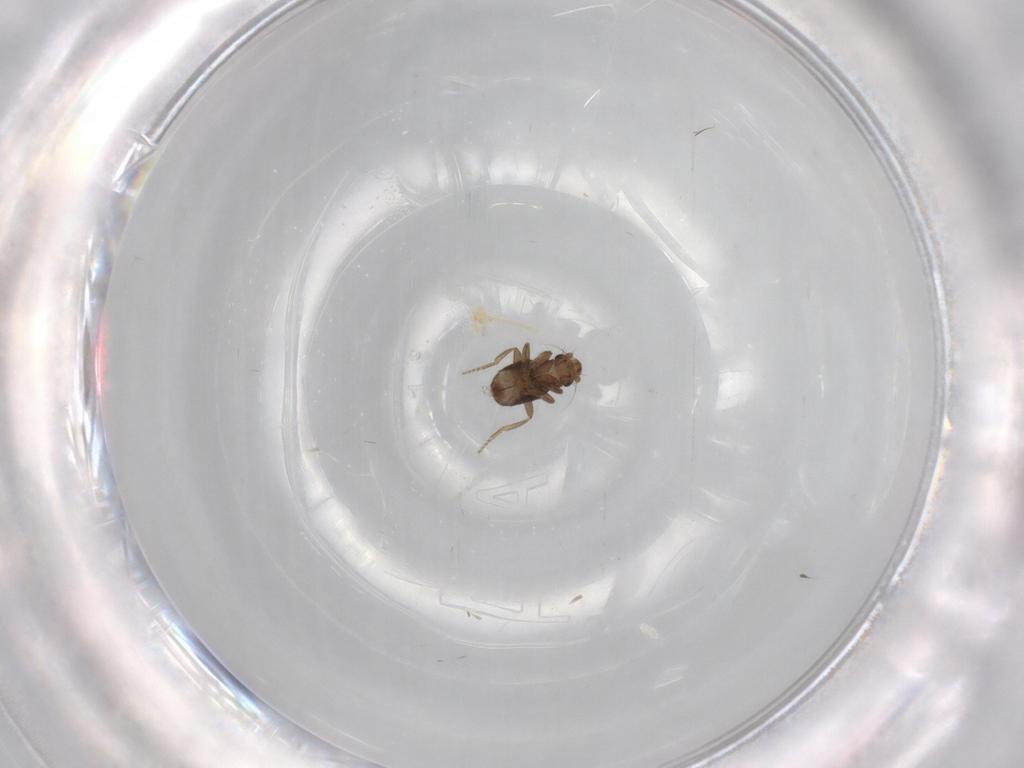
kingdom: Animalia
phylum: Arthropoda
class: Insecta
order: Diptera
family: Phoridae
